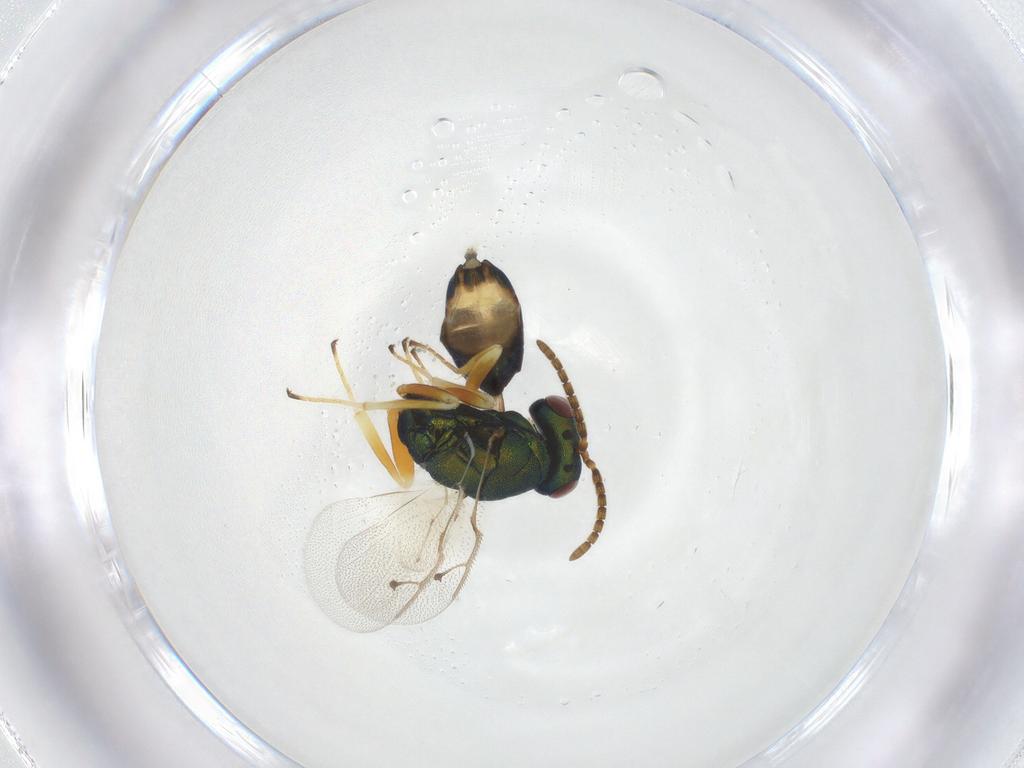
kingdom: Animalia
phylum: Arthropoda
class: Insecta
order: Hymenoptera
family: Pteromalidae
